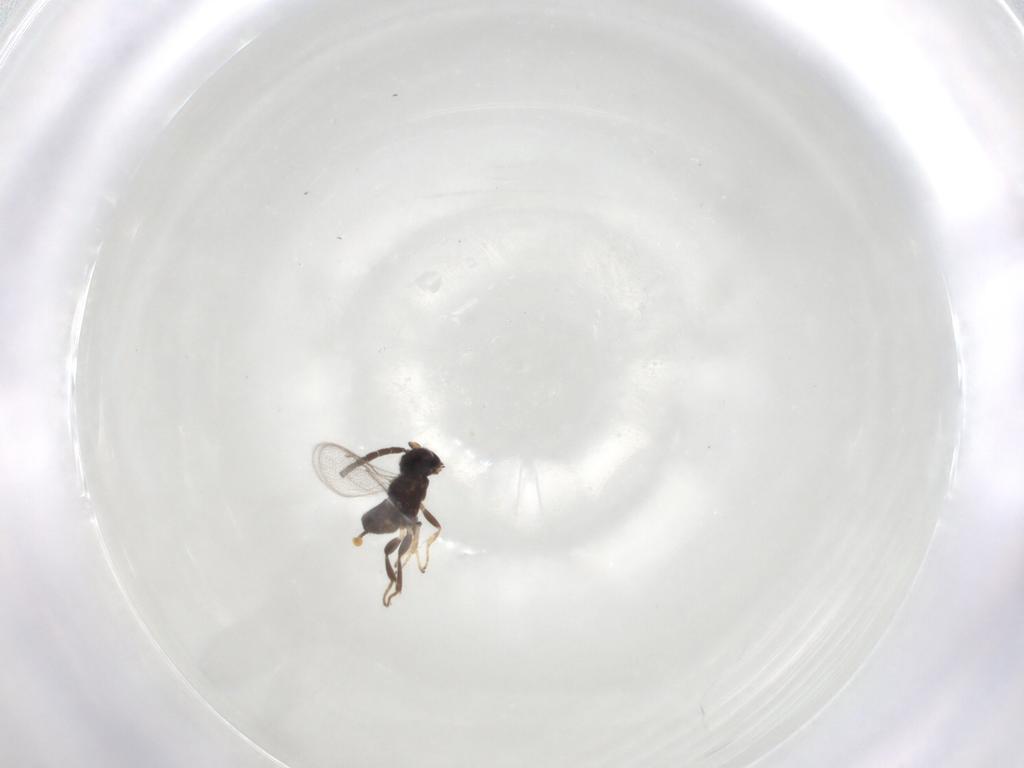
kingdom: Animalia
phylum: Arthropoda
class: Insecta
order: Hymenoptera
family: Eupelmidae
